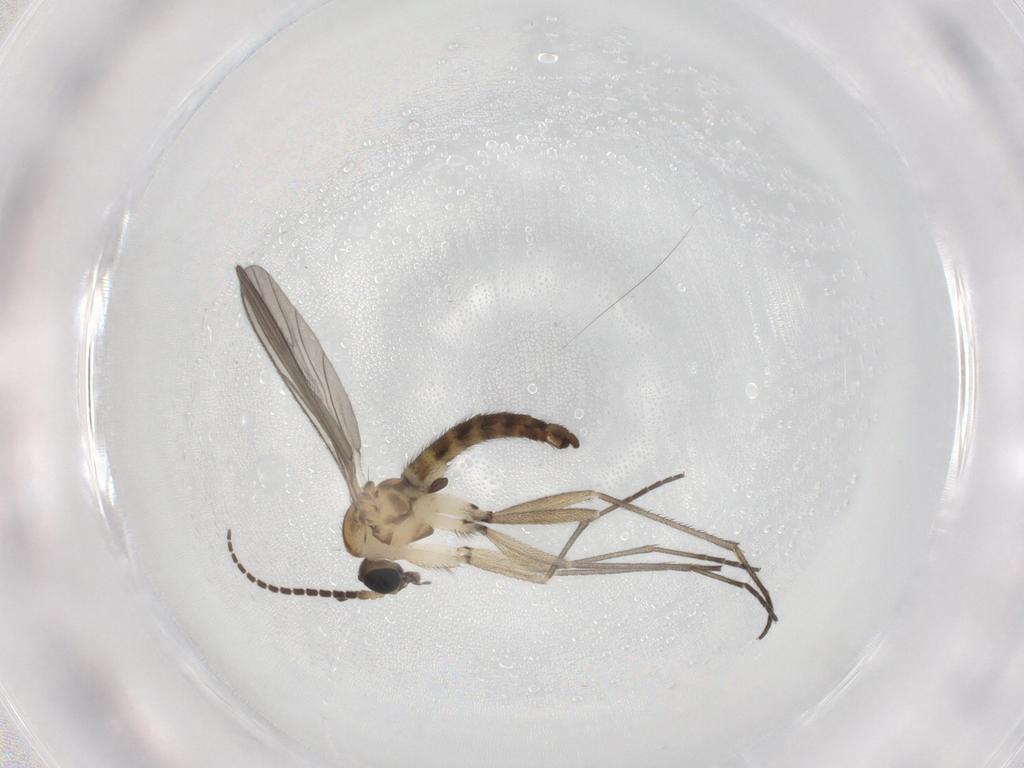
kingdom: Animalia
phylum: Arthropoda
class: Insecta
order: Diptera
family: Sciaridae
